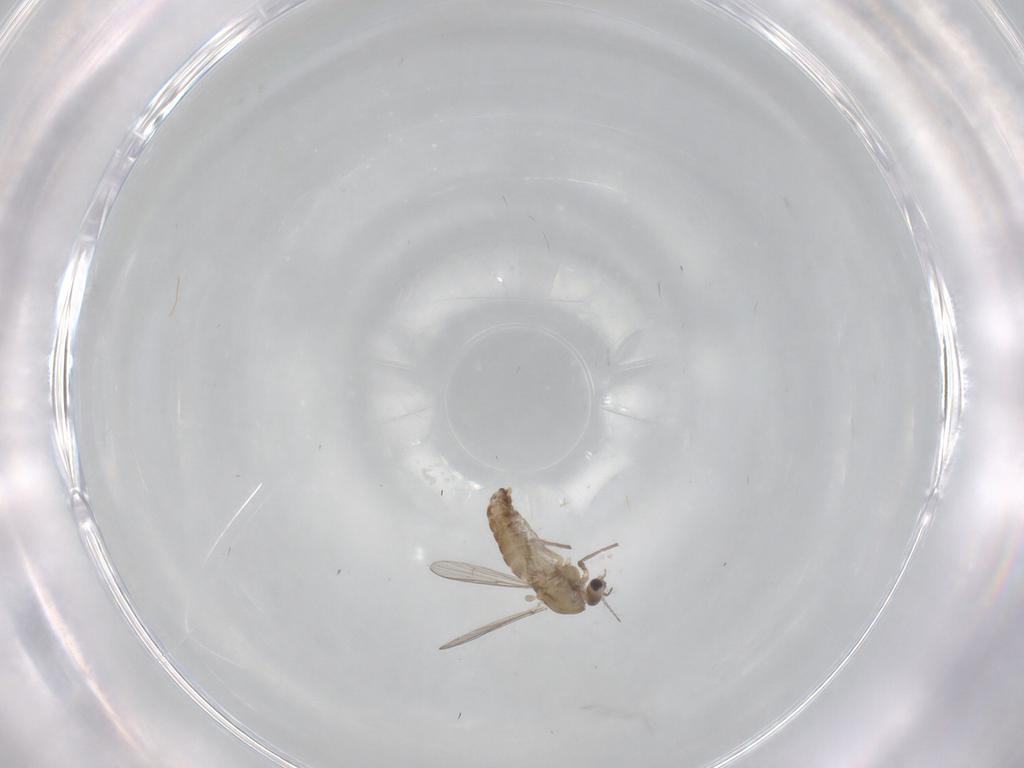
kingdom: Animalia
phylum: Arthropoda
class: Insecta
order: Diptera
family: Chironomidae
